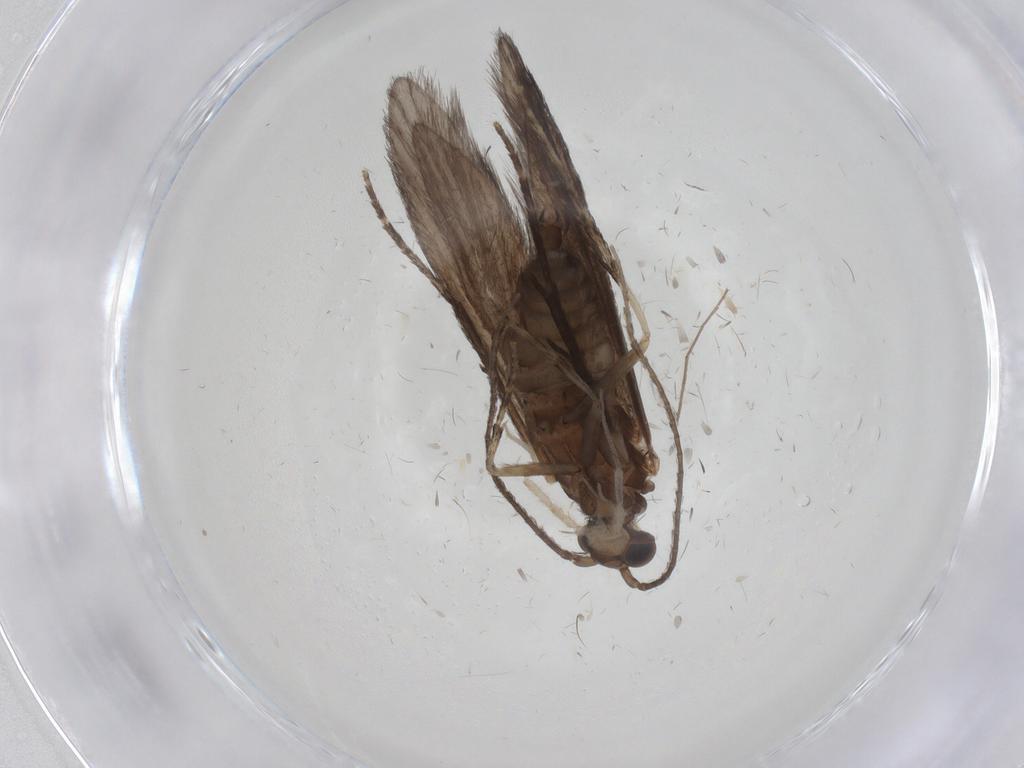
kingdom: Animalia
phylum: Arthropoda
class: Insecta
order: Trichoptera
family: Xiphocentronidae
